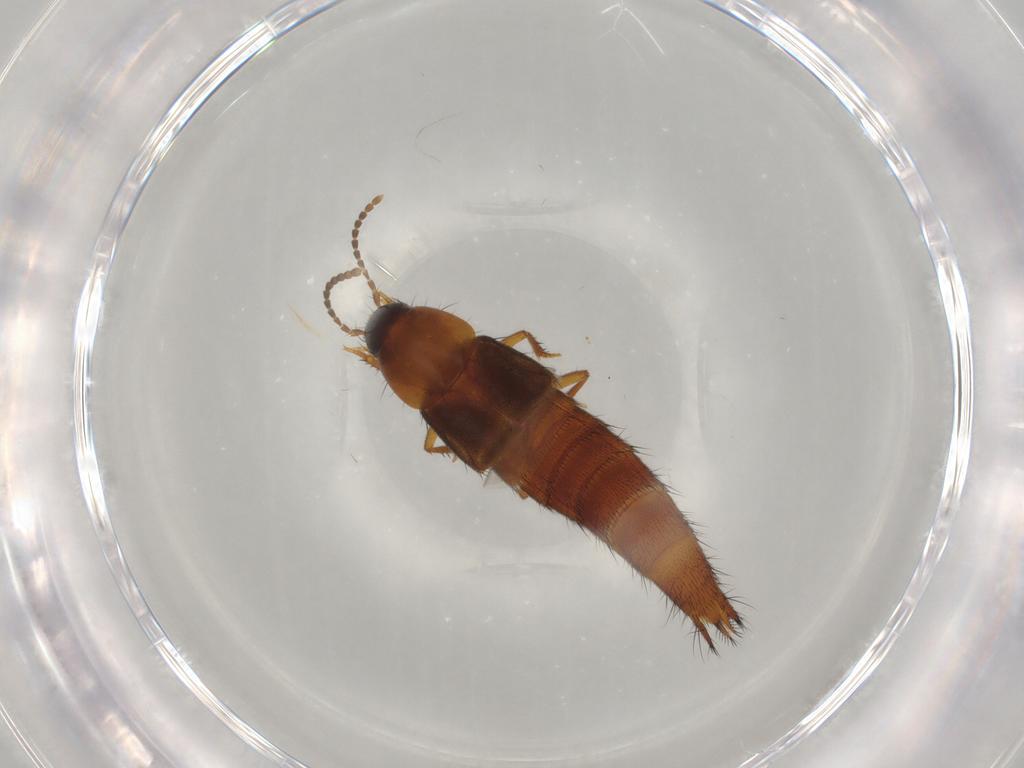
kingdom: Animalia
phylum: Arthropoda
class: Insecta
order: Coleoptera
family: Staphylinidae
